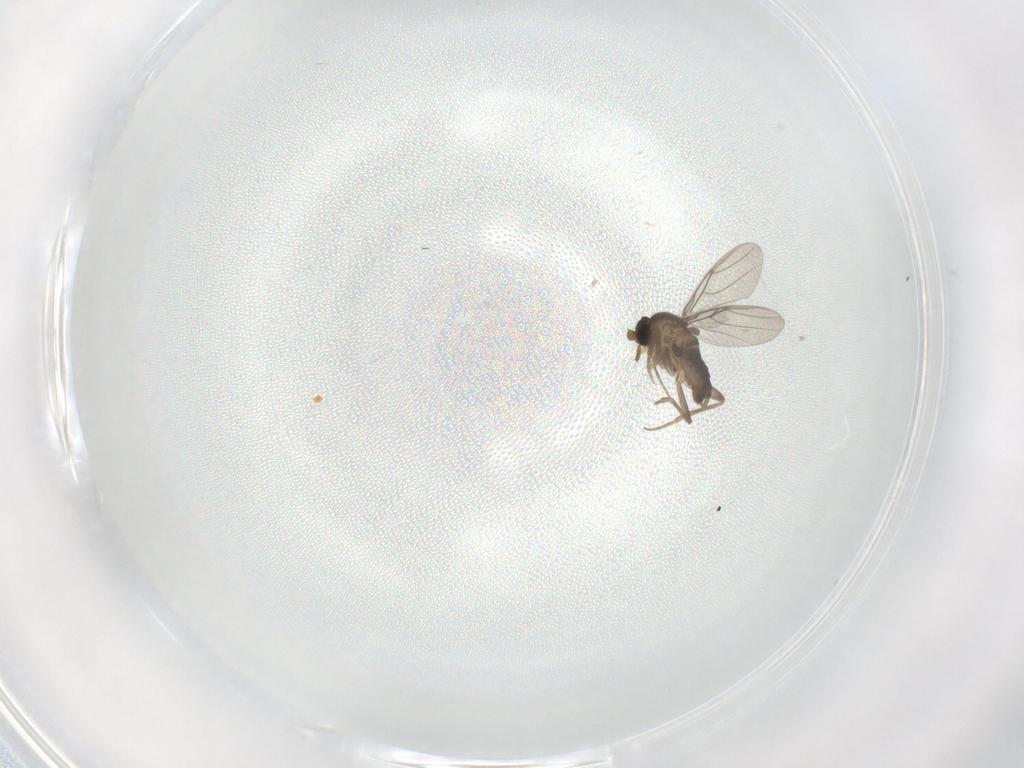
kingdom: Animalia
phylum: Arthropoda
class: Insecta
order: Diptera
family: Phoridae
